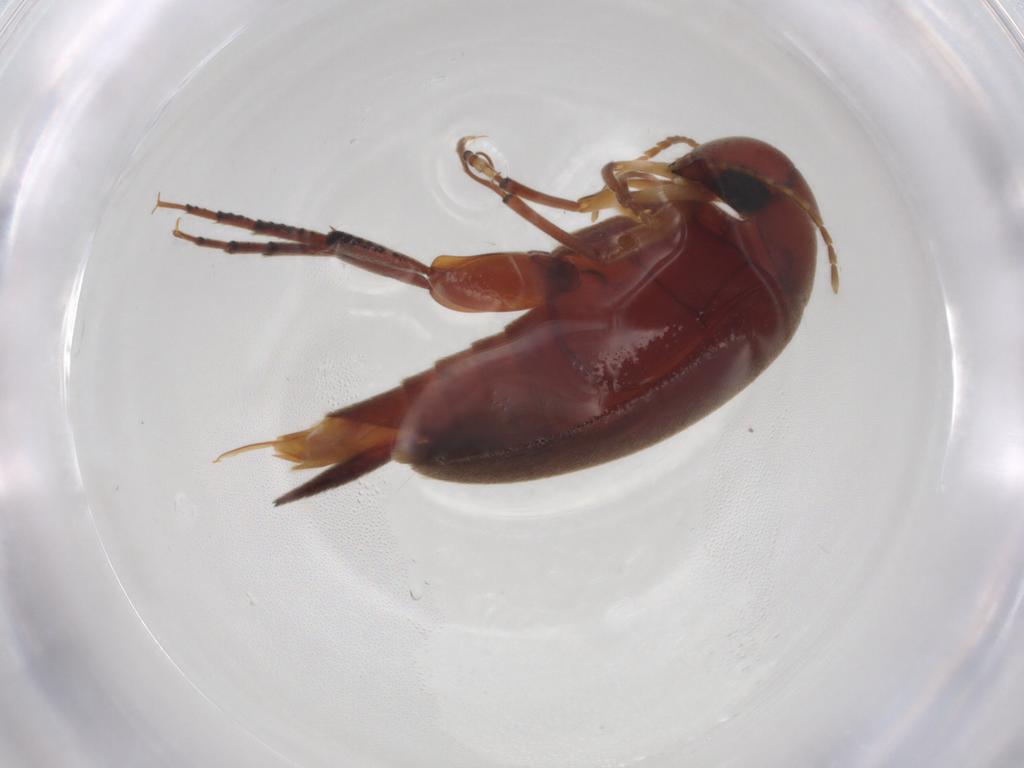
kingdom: Animalia
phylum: Arthropoda
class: Insecta
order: Coleoptera
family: Mordellidae
